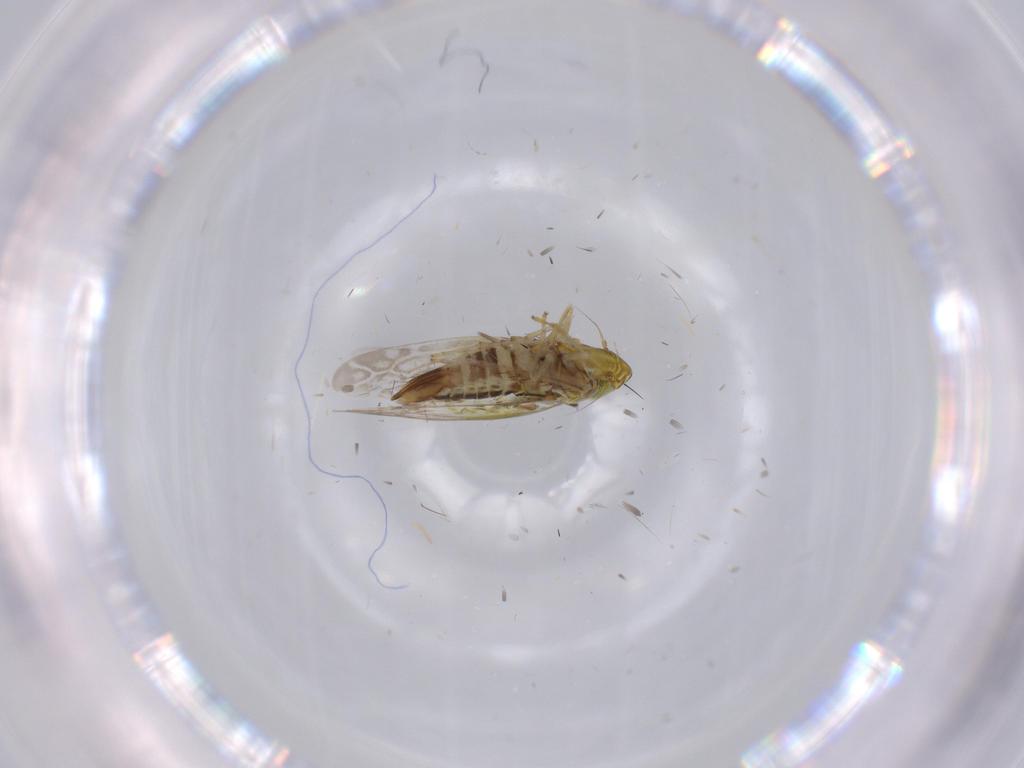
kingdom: Animalia
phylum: Arthropoda
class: Insecta
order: Hemiptera
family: Cicadellidae
